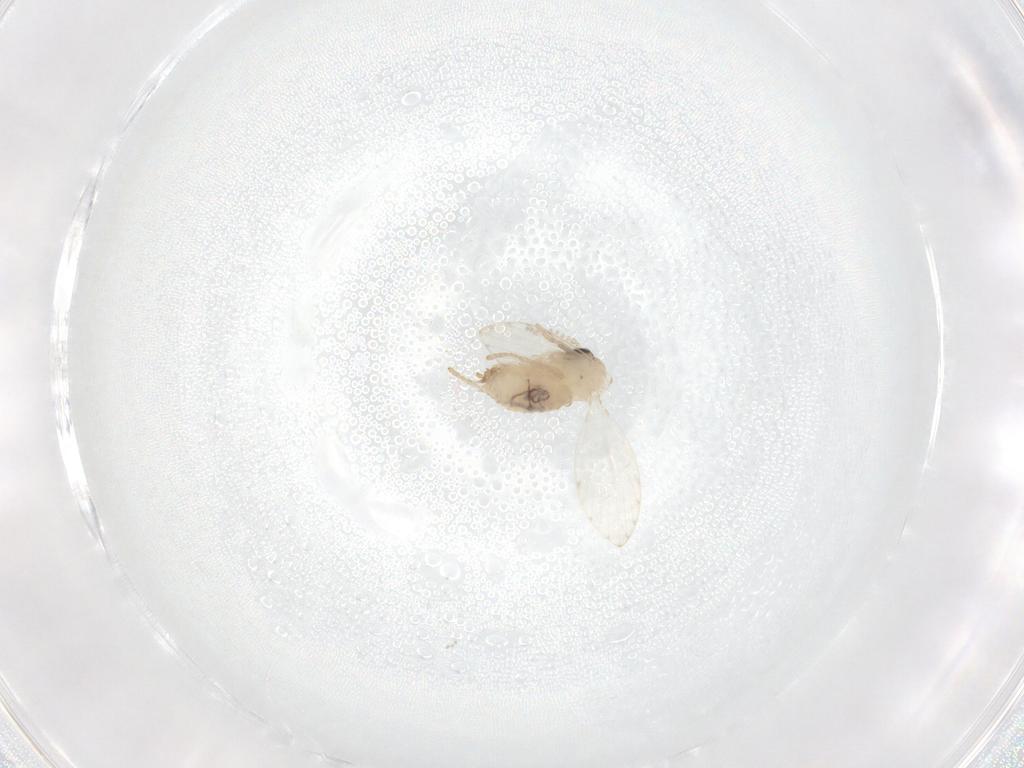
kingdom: Animalia
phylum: Arthropoda
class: Insecta
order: Diptera
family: Psychodidae
